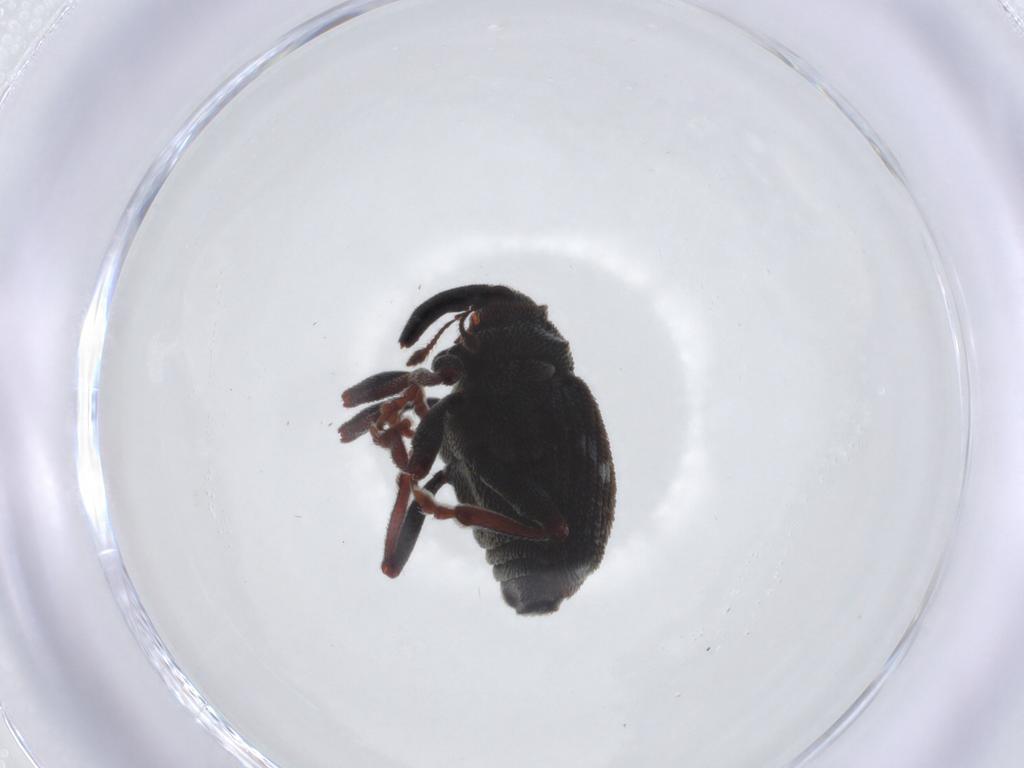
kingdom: Animalia
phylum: Arthropoda
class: Insecta
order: Coleoptera
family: Curculionidae
